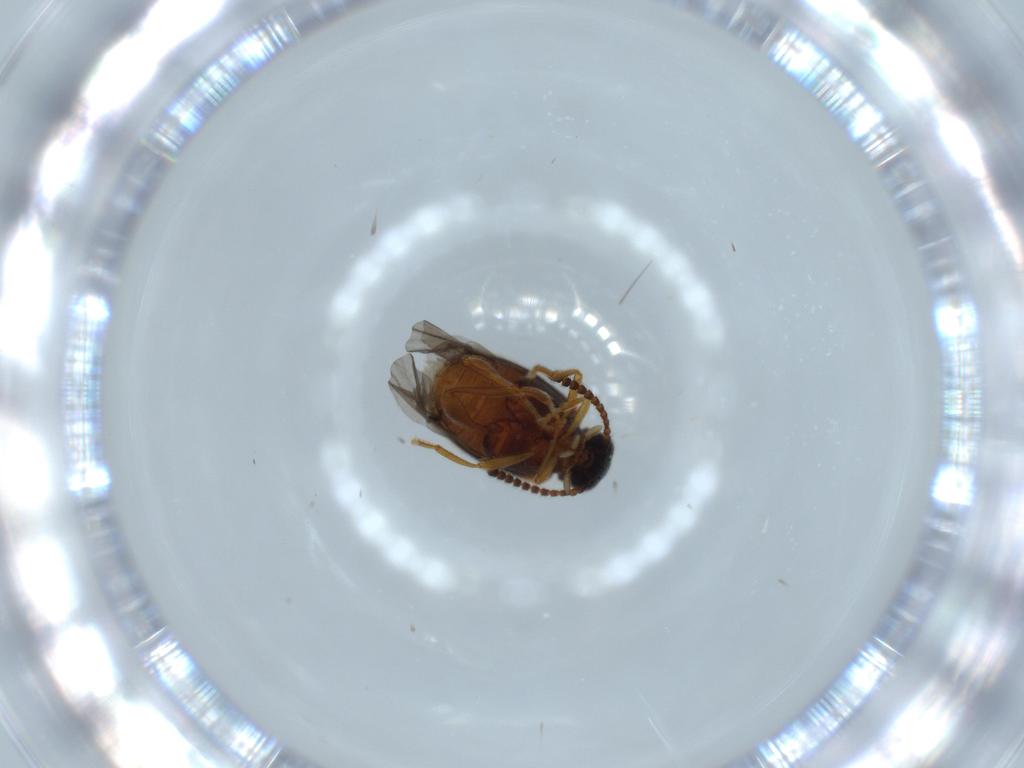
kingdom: Animalia
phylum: Arthropoda
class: Insecta
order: Coleoptera
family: Aderidae
